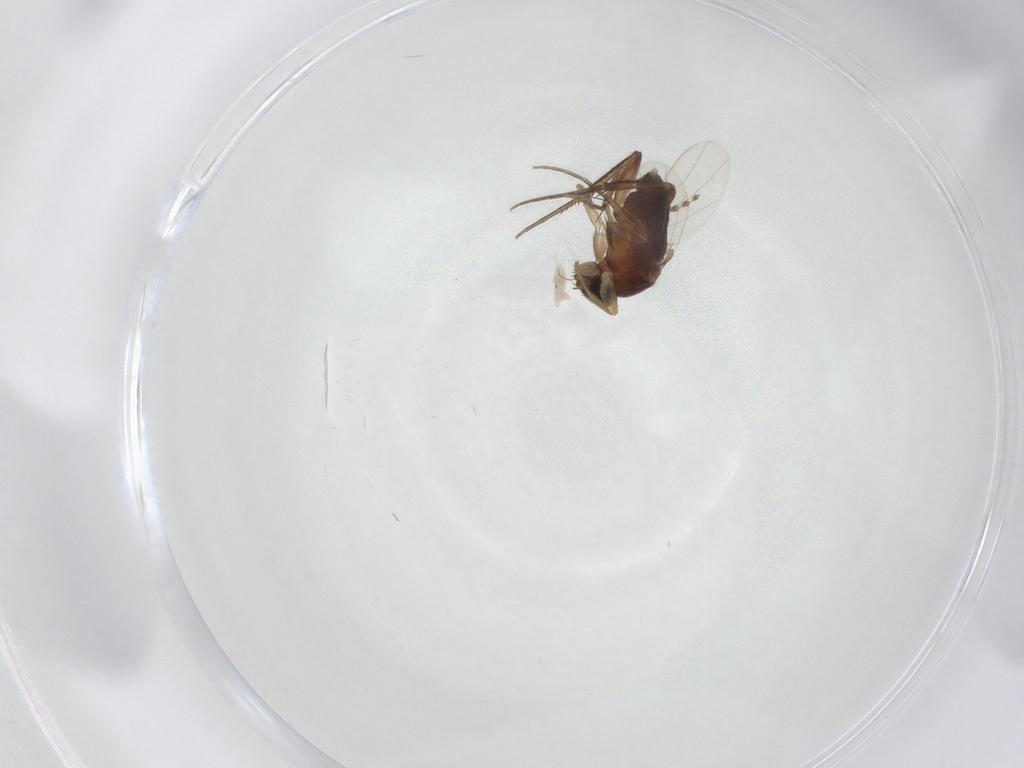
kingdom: Animalia
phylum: Arthropoda
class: Insecta
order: Diptera
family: Phoridae
